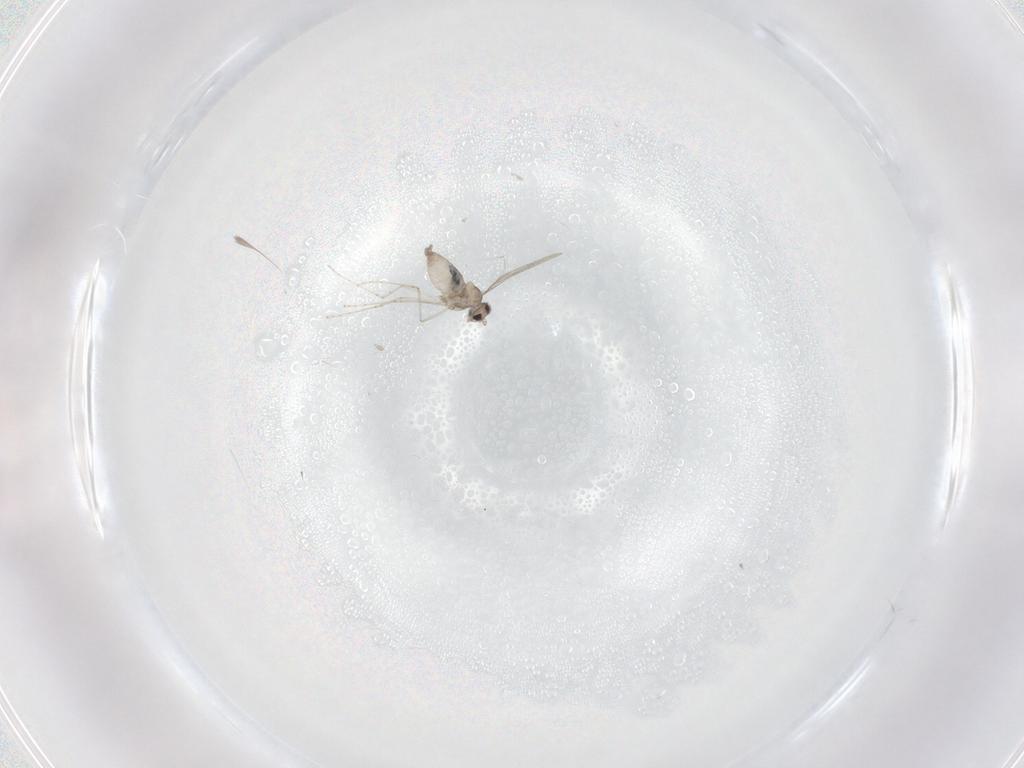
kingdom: Animalia
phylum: Arthropoda
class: Insecta
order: Diptera
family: Cecidomyiidae
